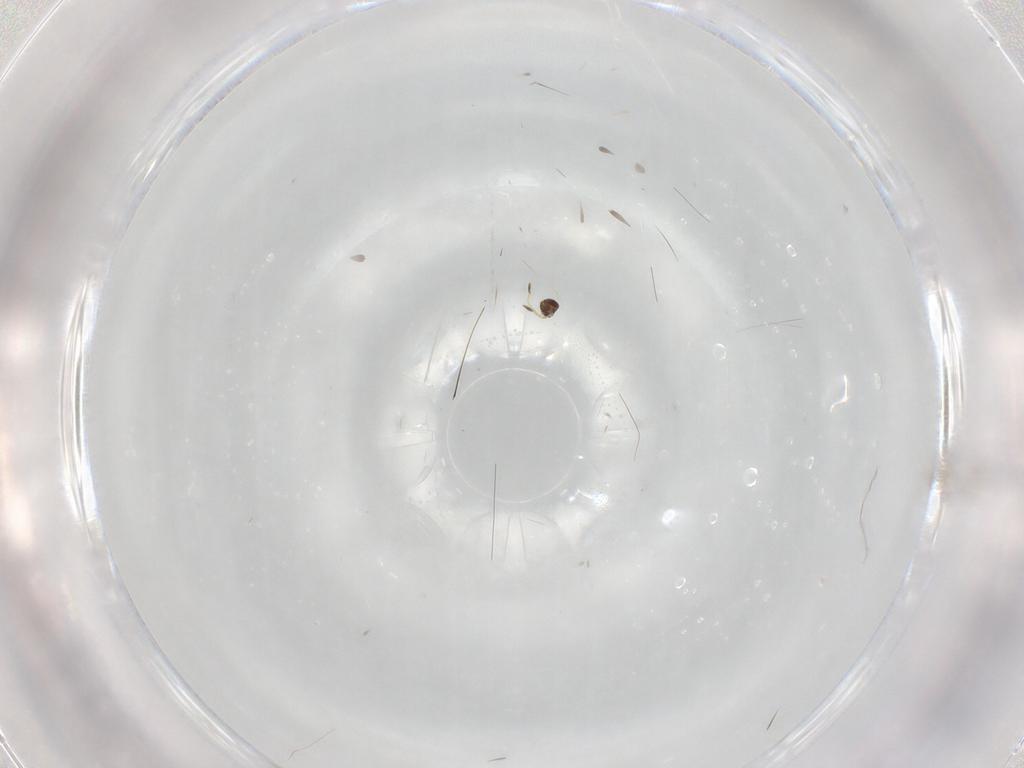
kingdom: Animalia
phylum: Arthropoda
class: Insecta
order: Hymenoptera
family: Mymaridae
